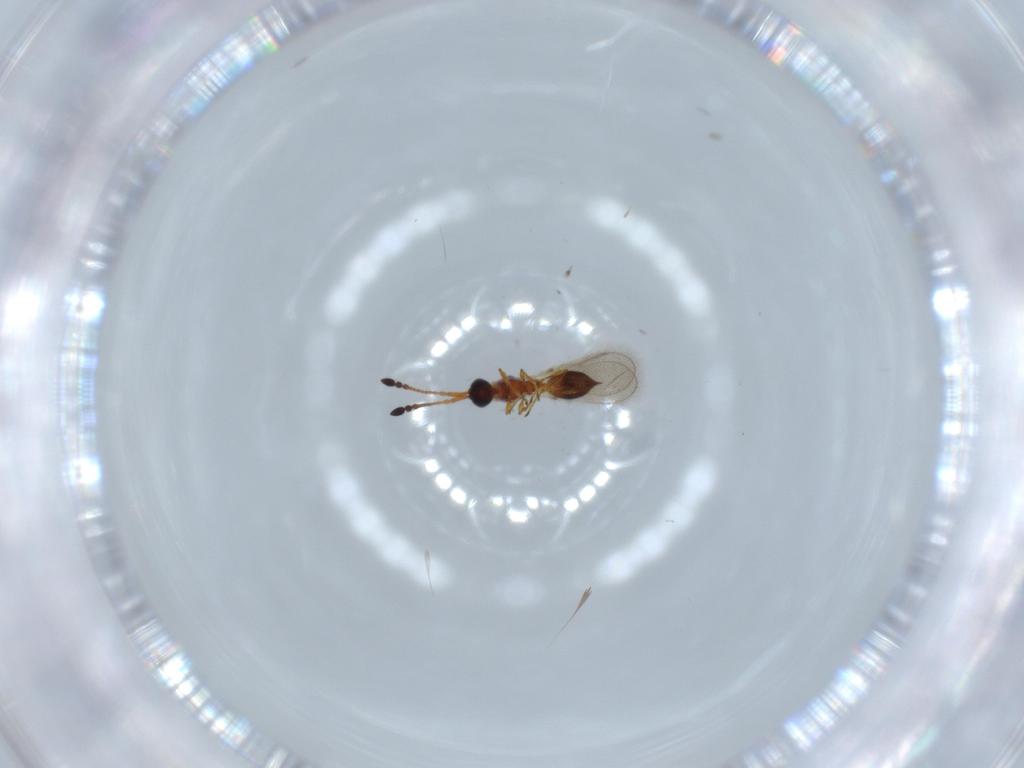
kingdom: Animalia
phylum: Arthropoda
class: Insecta
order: Hymenoptera
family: Diapriidae
